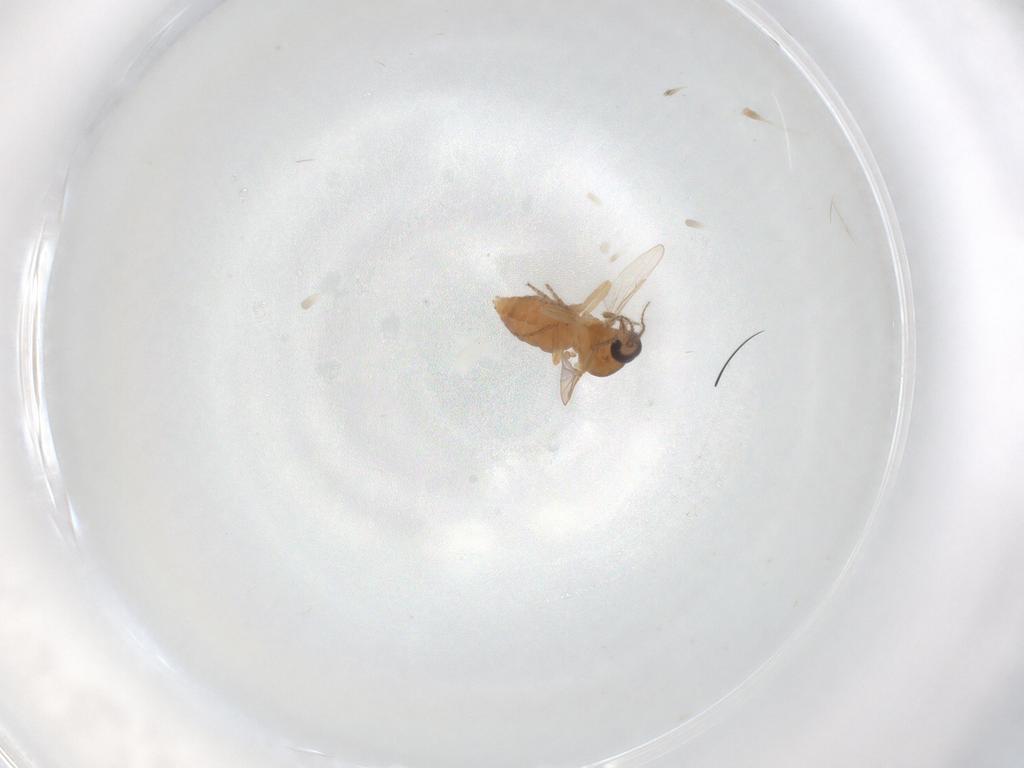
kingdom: Animalia
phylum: Arthropoda
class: Insecta
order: Diptera
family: Ceratopogonidae
